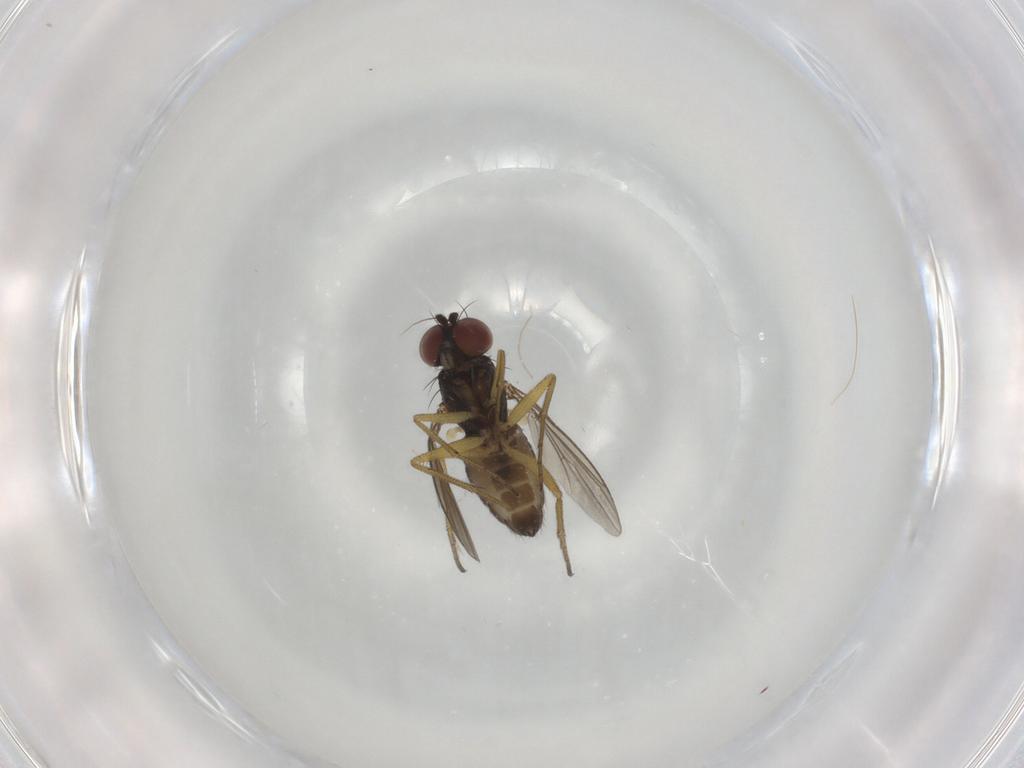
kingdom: Animalia
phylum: Arthropoda
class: Insecta
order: Diptera
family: Dolichopodidae
